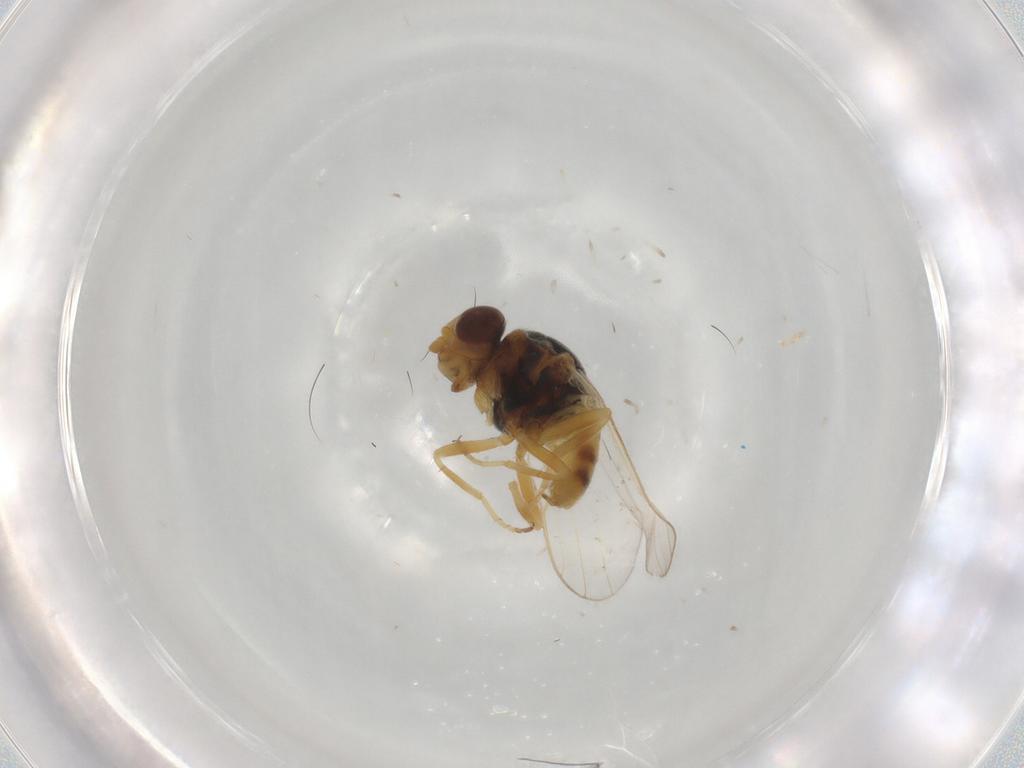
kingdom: Animalia
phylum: Arthropoda
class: Insecta
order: Diptera
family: Chloropidae
